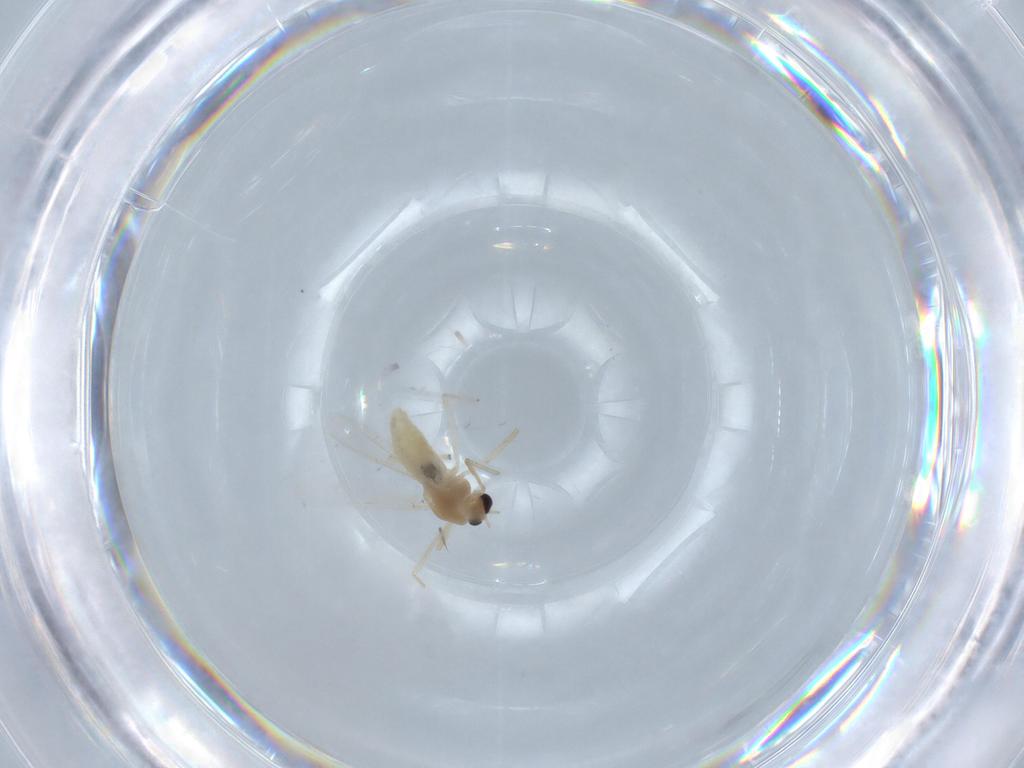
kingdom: Animalia
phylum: Arthropoda
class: Insecta
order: Diptera
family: Chironomidae
